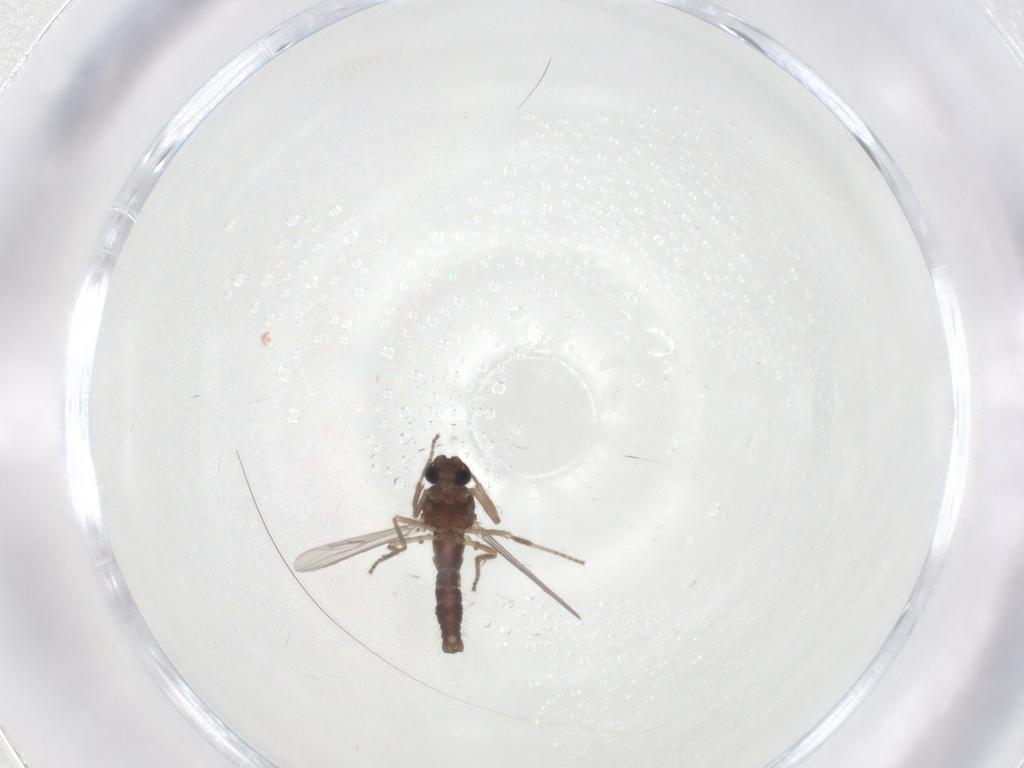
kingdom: Animalia
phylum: Arthropoda
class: Insecta
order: Diptera
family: Ceratopogonidae
